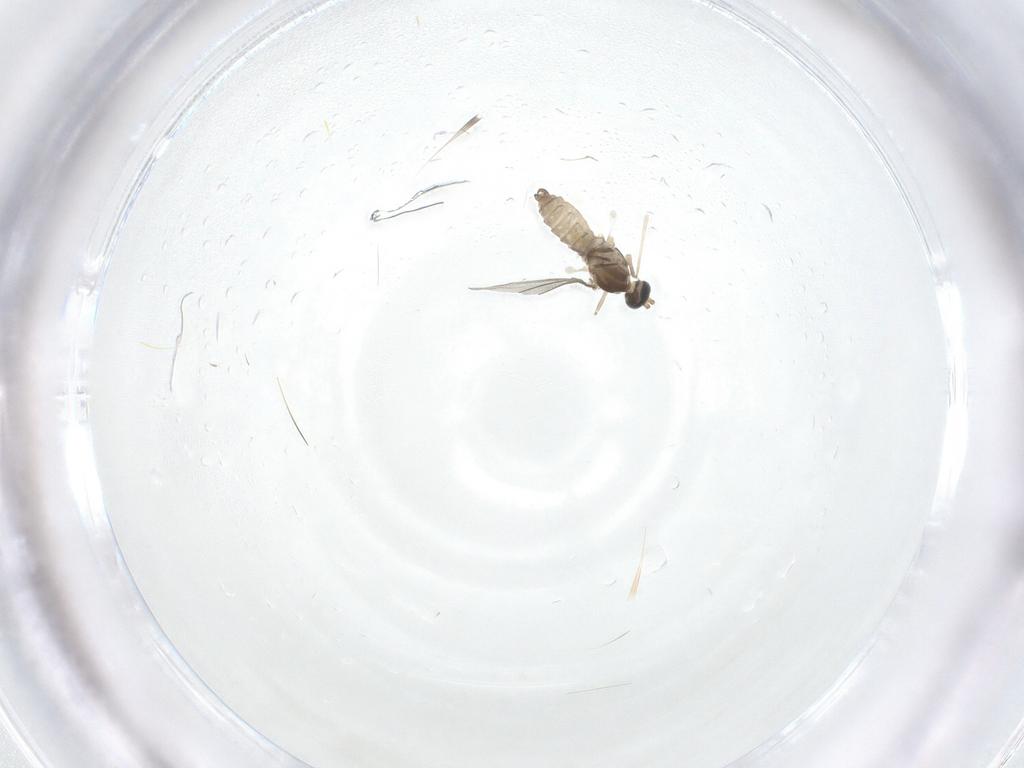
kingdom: Animalia
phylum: Arthropoda
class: Insecta
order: Diptera
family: Cecidomyiidae
